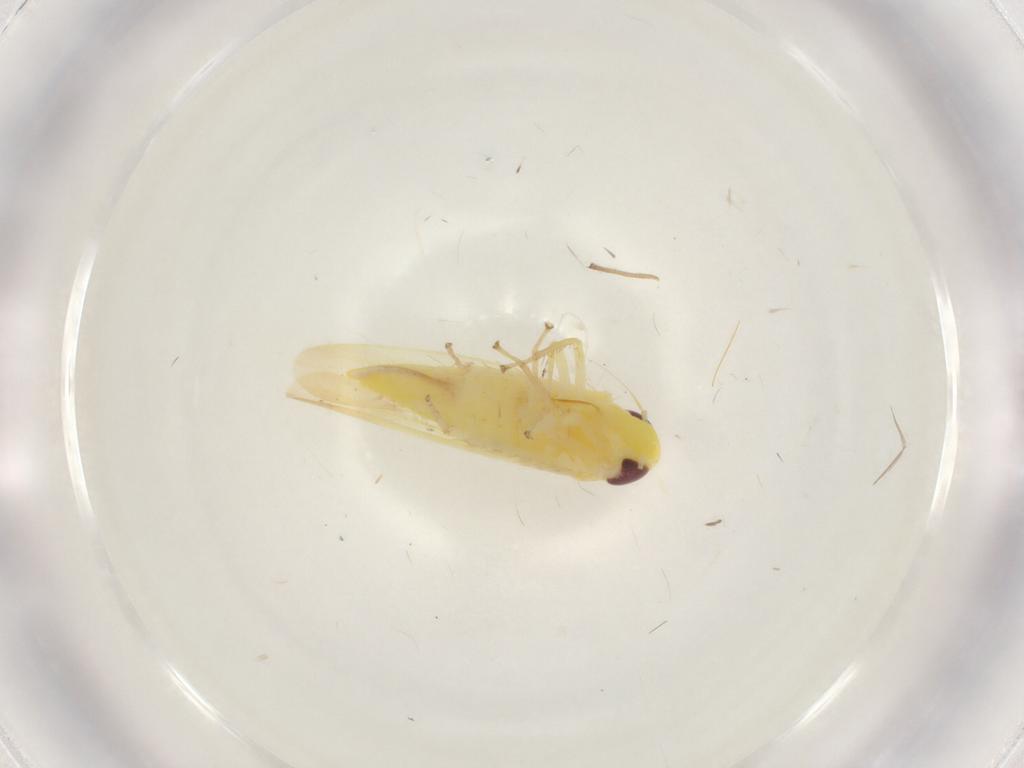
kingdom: Animalia
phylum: Arthropoda
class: Insecta
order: Hemiptera
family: Cicadellidae
